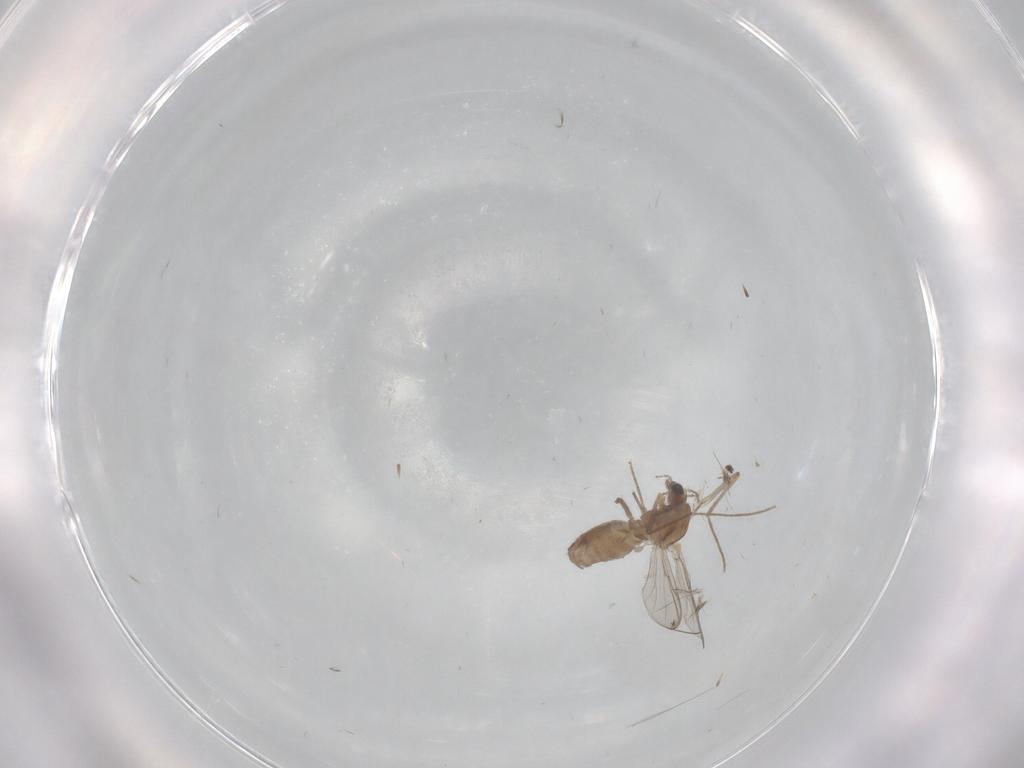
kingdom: Animalia
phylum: Arthropoda
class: Insecta
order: Diptera
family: Chironomidae
